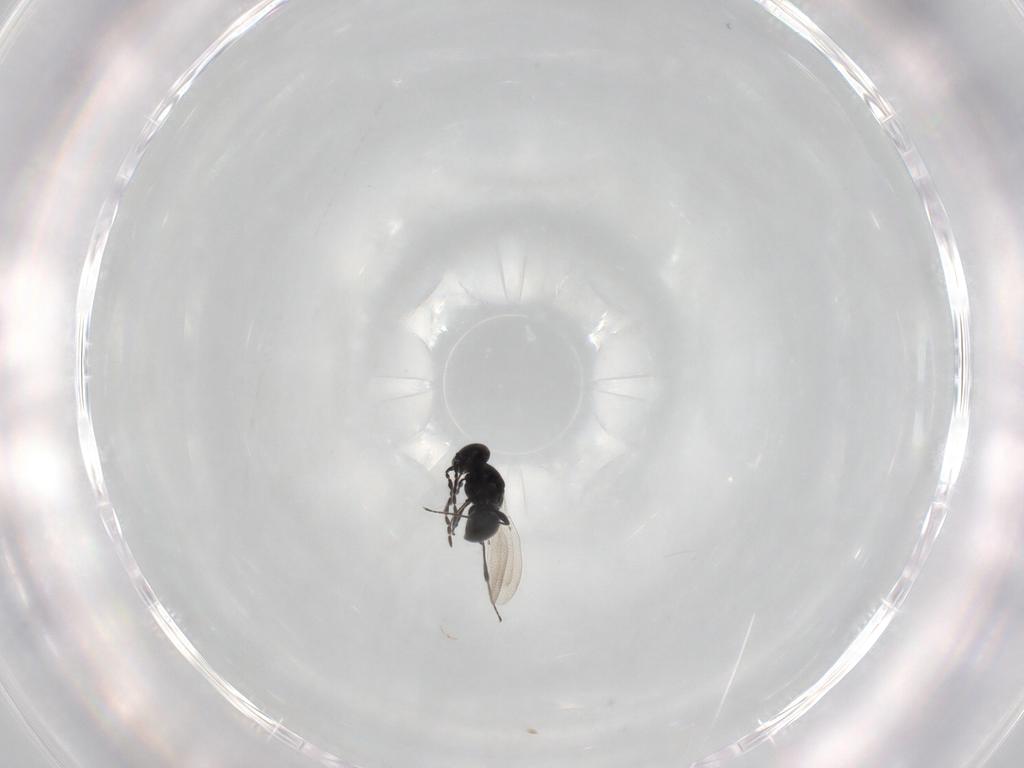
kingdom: Animalia
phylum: Arthropoda
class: Insecta
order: Hymenoptera
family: Platygastridae
